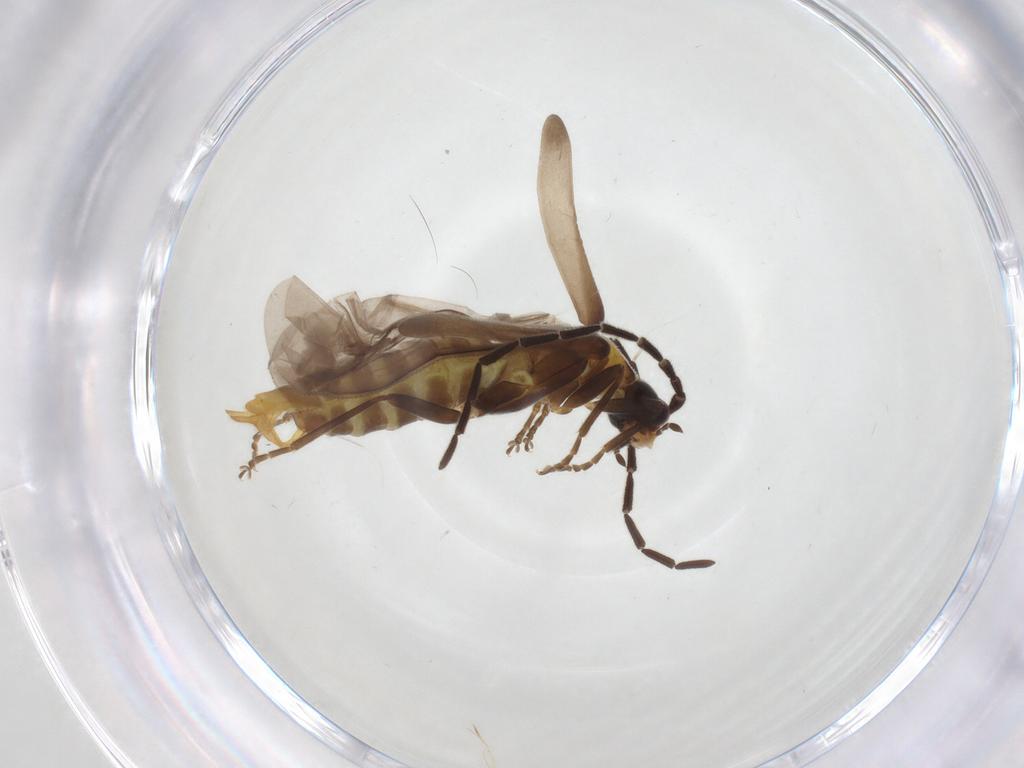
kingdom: Animalia
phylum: Arthropoda
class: Insecta
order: Coleoptera
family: Cantharidae
